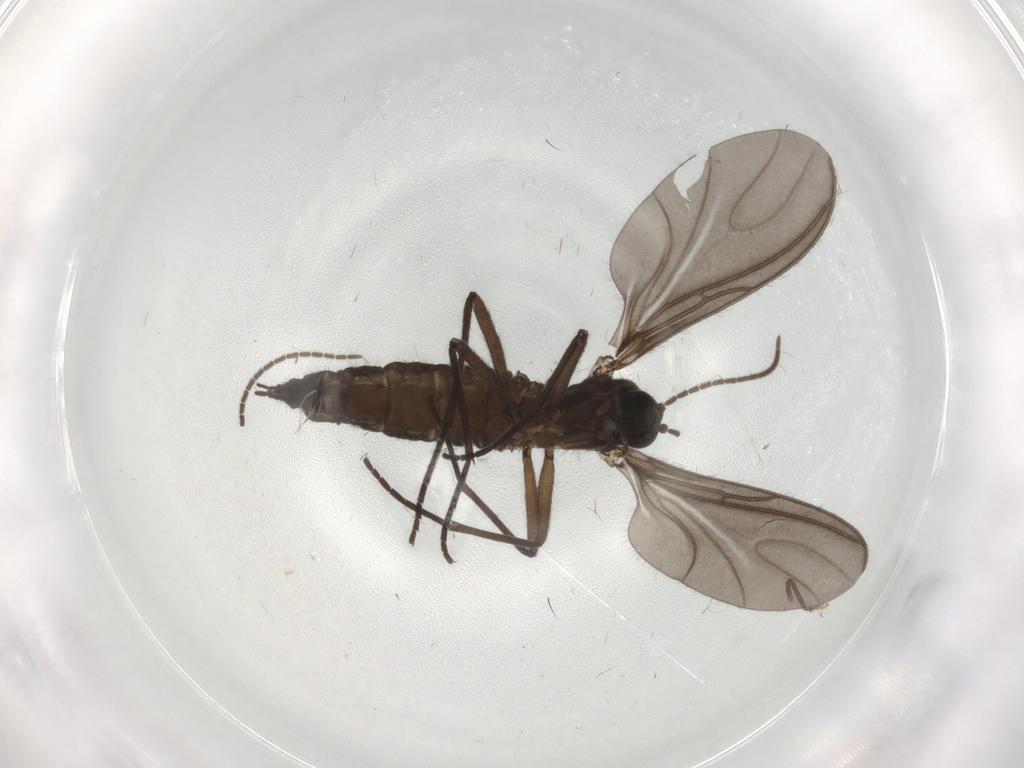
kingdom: Animalia
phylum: Arthropoda
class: Insecta
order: Diptera
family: Sciaridae
